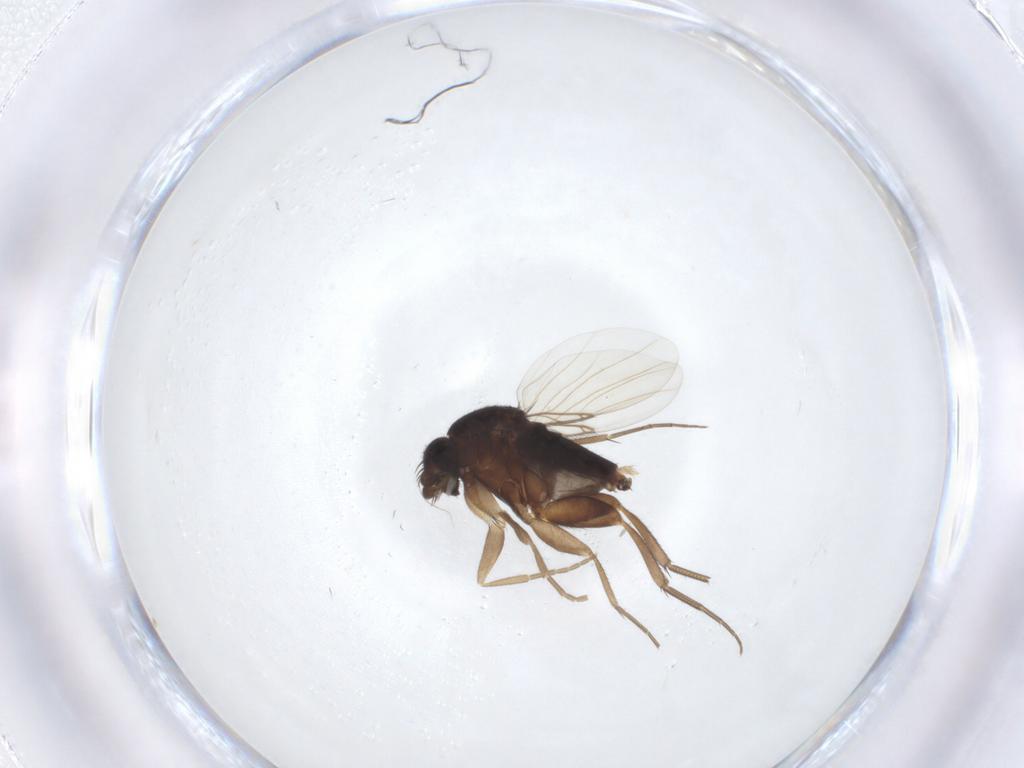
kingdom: Animalia
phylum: Arthropoda
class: Insecta
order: Diptera
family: Phoridae
